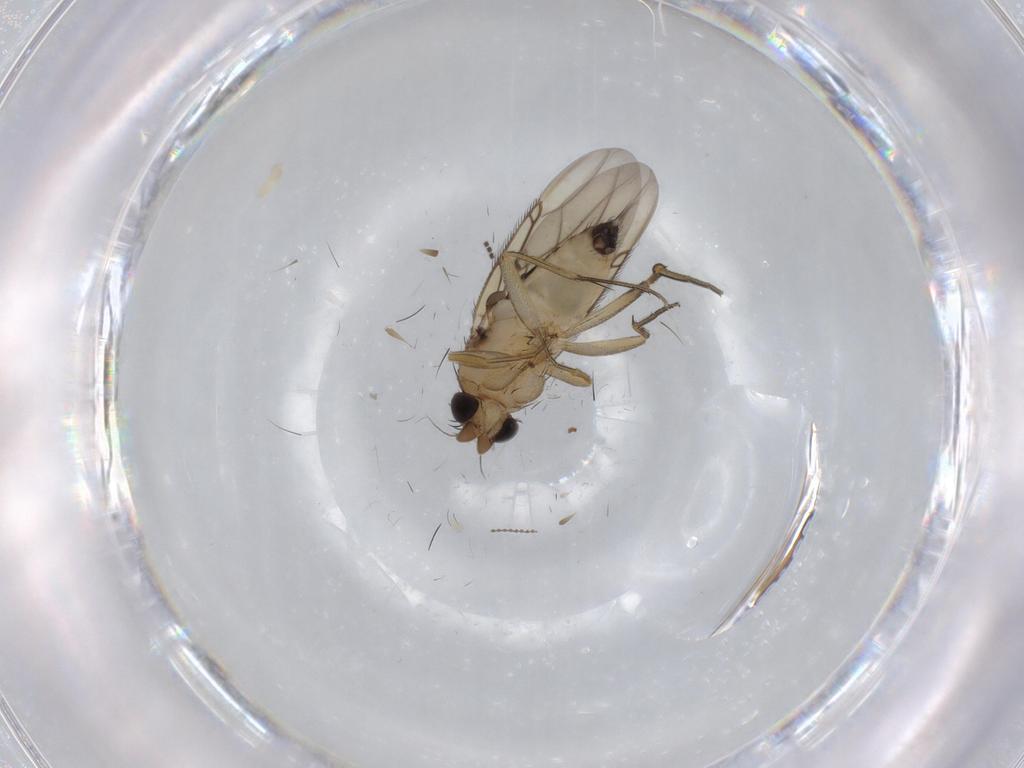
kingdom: Animalia
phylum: Arthropoda
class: Insecta
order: Diptera
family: Phoridae
